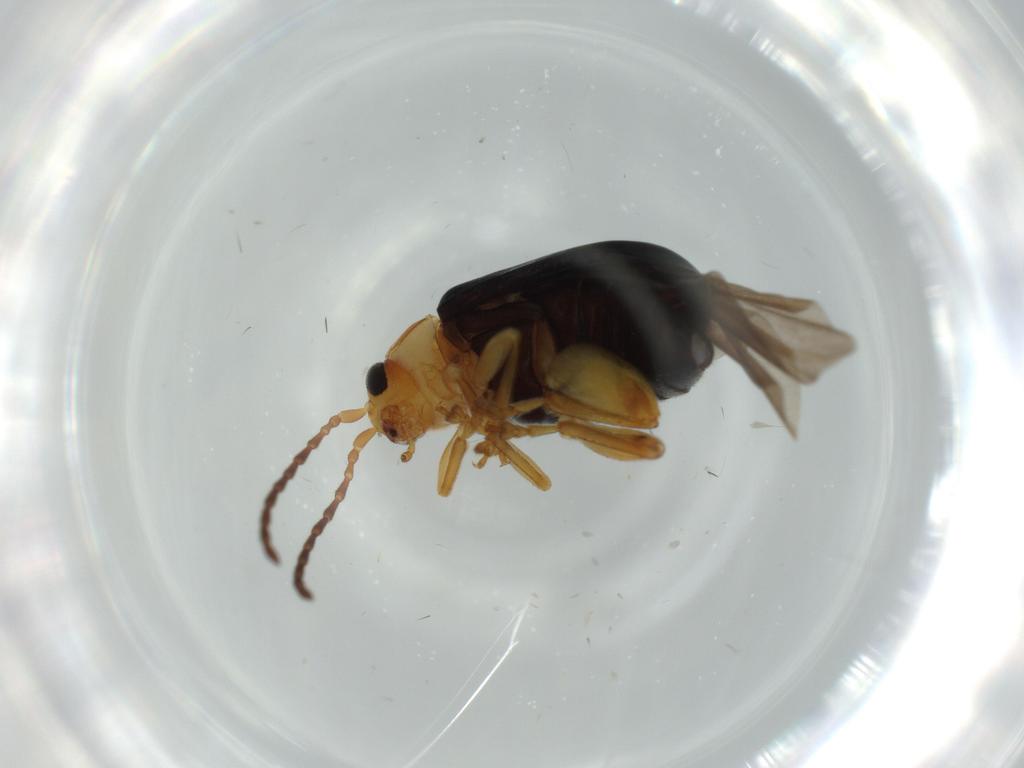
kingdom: Animalia
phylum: Arthropoda
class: Insecta
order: Coleoptera
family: Chrysomelidae
